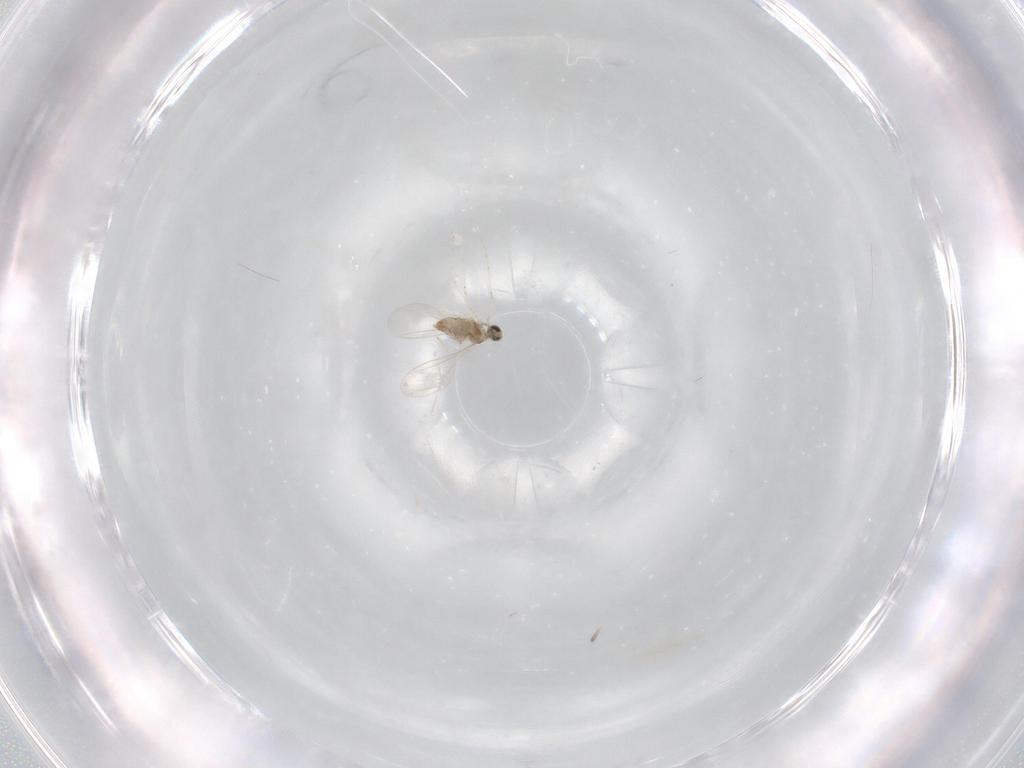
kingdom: Animalia
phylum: Arthropoda
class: Insecta
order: Diptera
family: Cecidomyiidae
